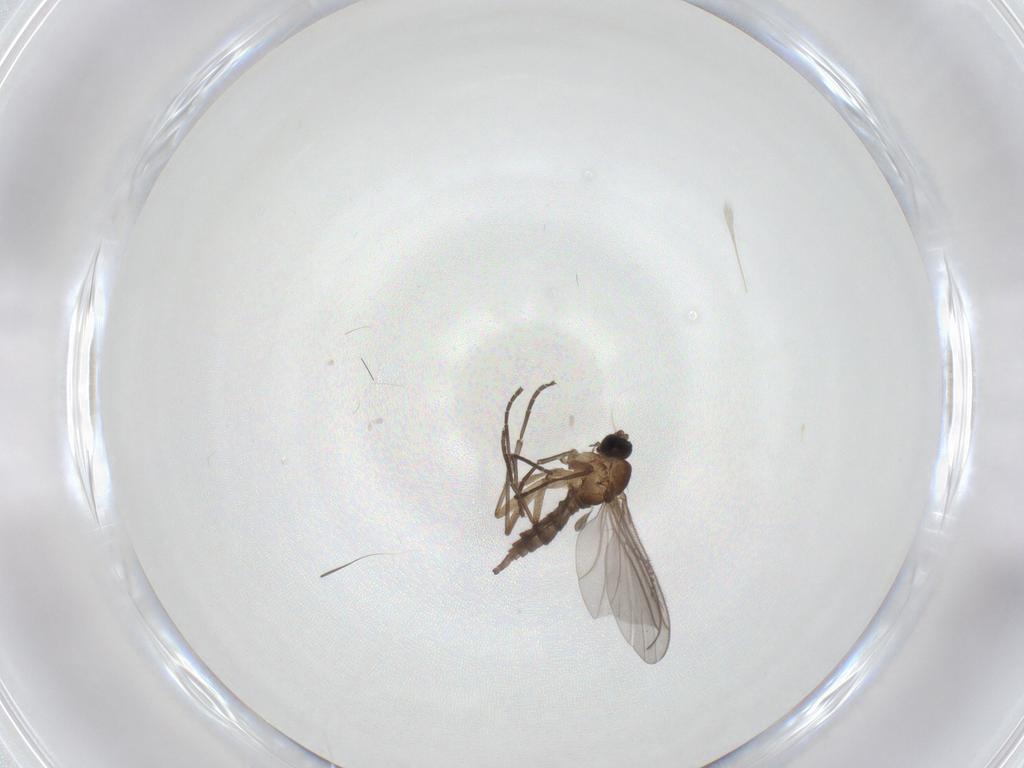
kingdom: Animalia
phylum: Arthropoda
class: Insecta
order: Diptera
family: Sciaridae
